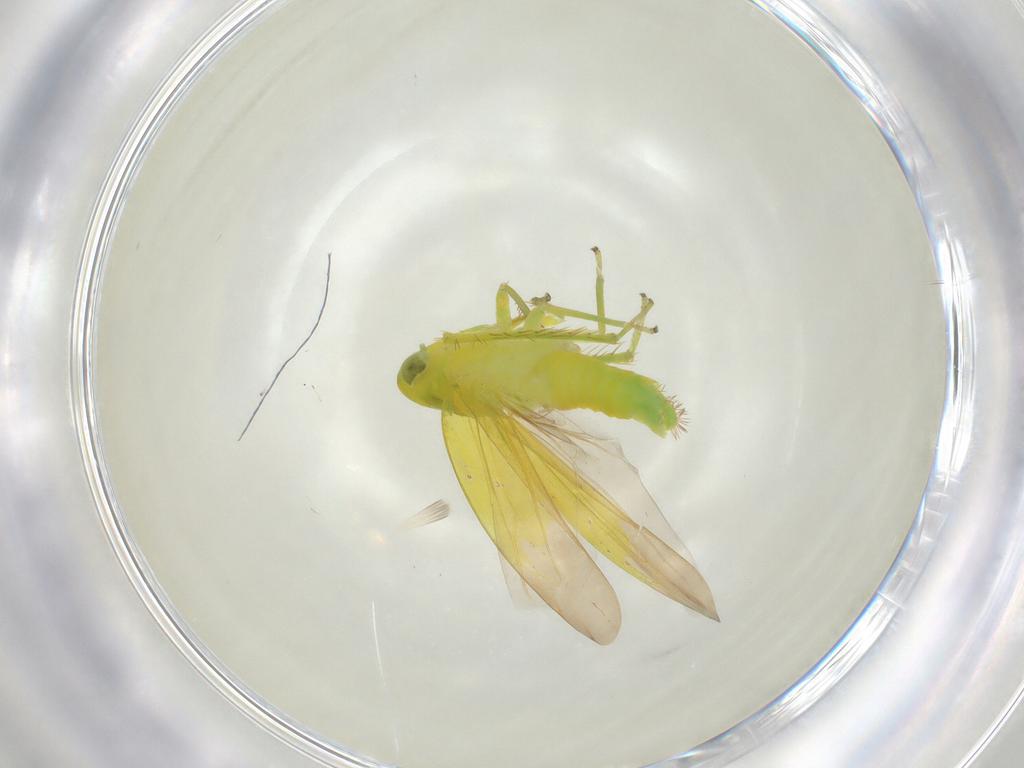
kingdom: Animalia
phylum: Arthropoda
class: Insecta
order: Hemiptera
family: Cicadellidae
